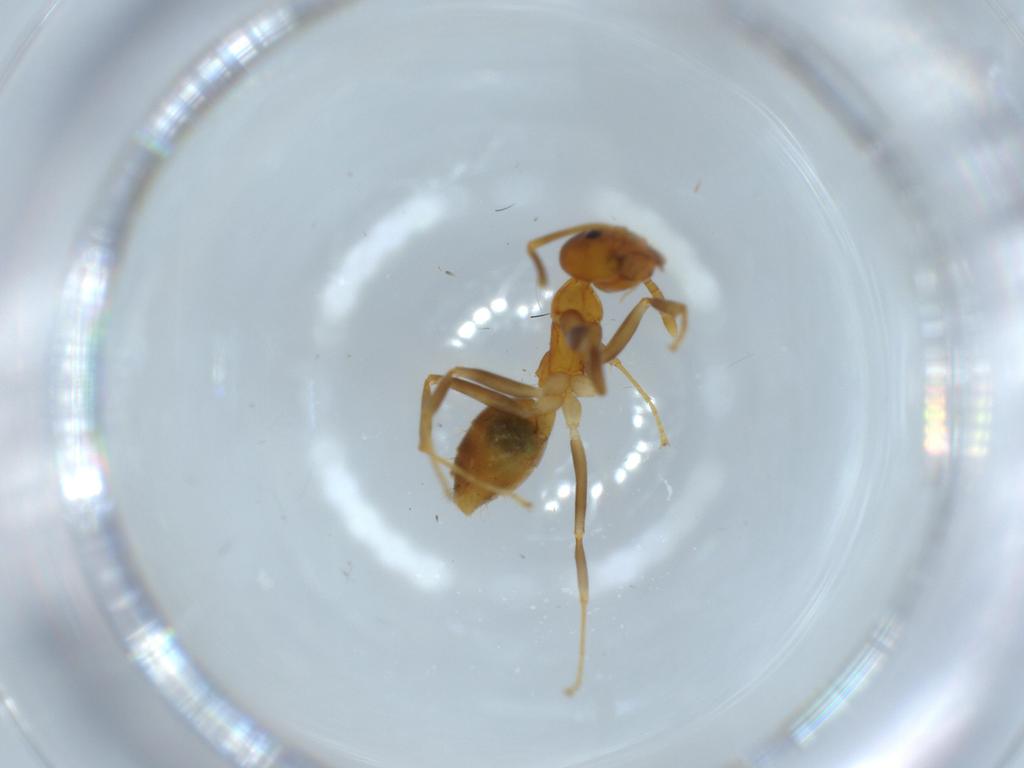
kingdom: Animalia
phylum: Arthropoda
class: Insecta
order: Hymenoptera
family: Formicidae
